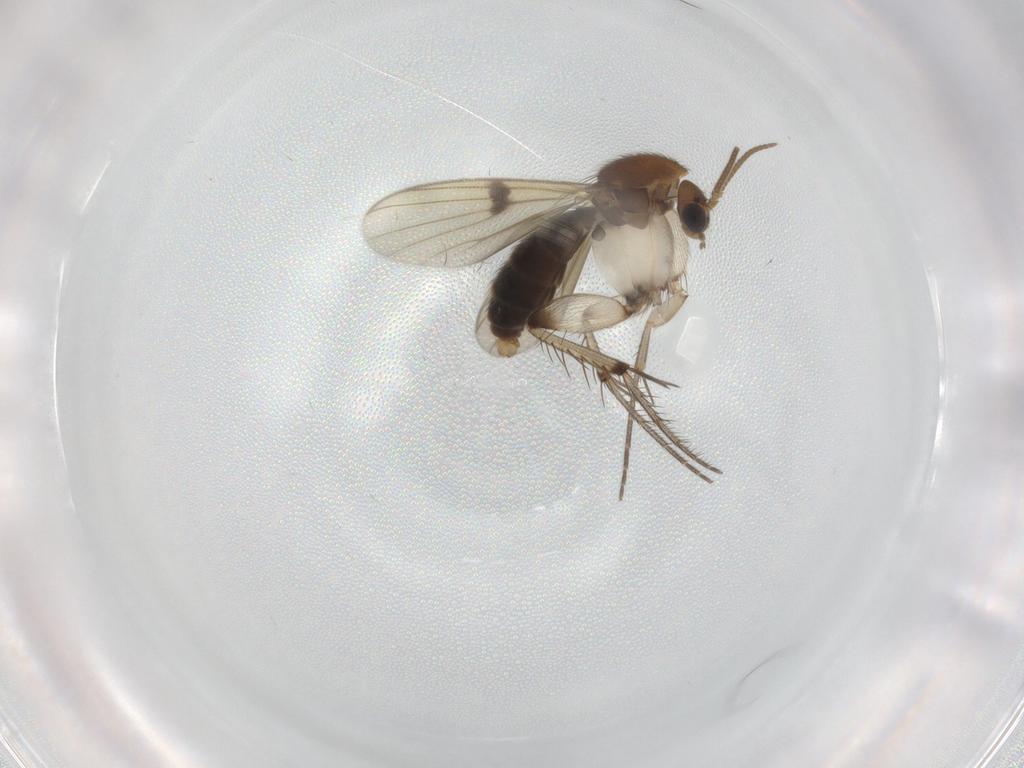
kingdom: Animalia
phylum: Arthropoda
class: Insecta
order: Diptera
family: Mycetophilidae
